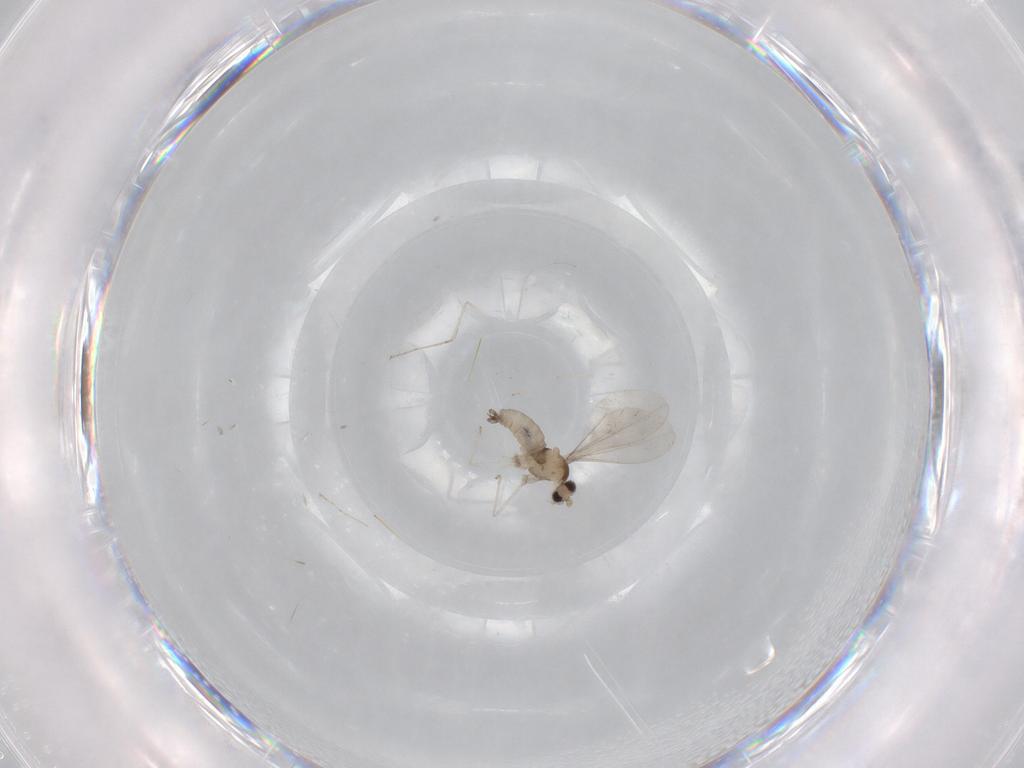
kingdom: Animalia
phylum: Arthropoda
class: Insecta
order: Diptera
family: Cecidomyiidae
